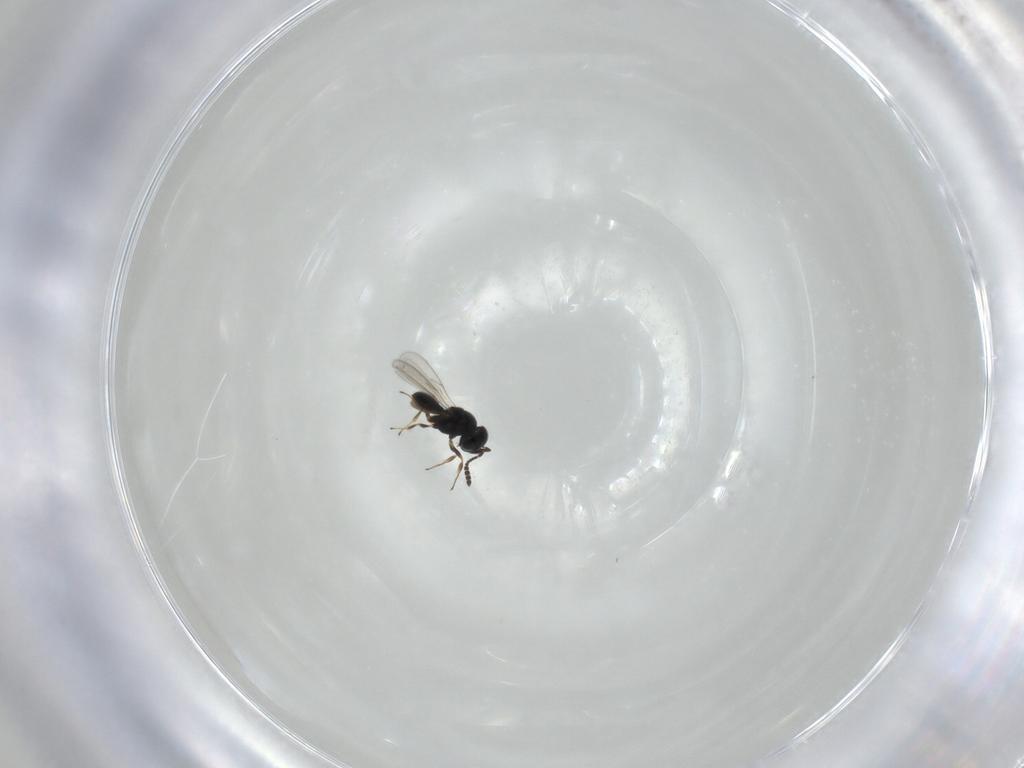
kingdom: Animalia
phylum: Arthropoda
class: Insecta
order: Hymenoptera
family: Scelionidae
